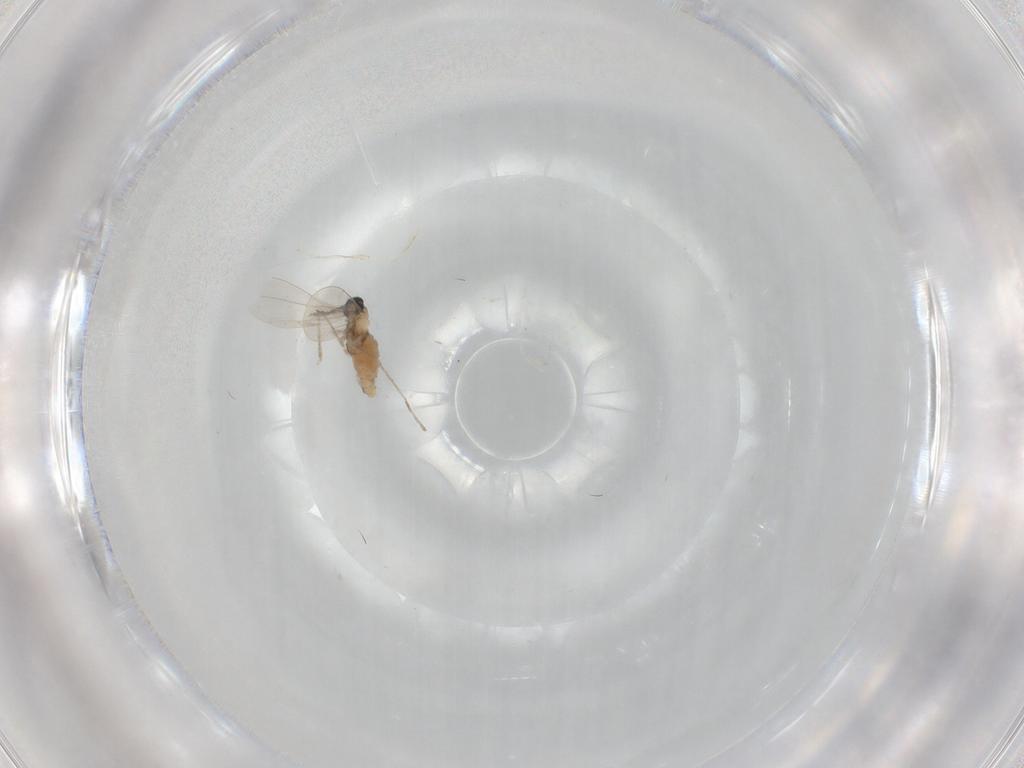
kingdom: Animalia
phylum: Arthropoda
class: Insecta
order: Diptera
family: Cecidomyiidae
